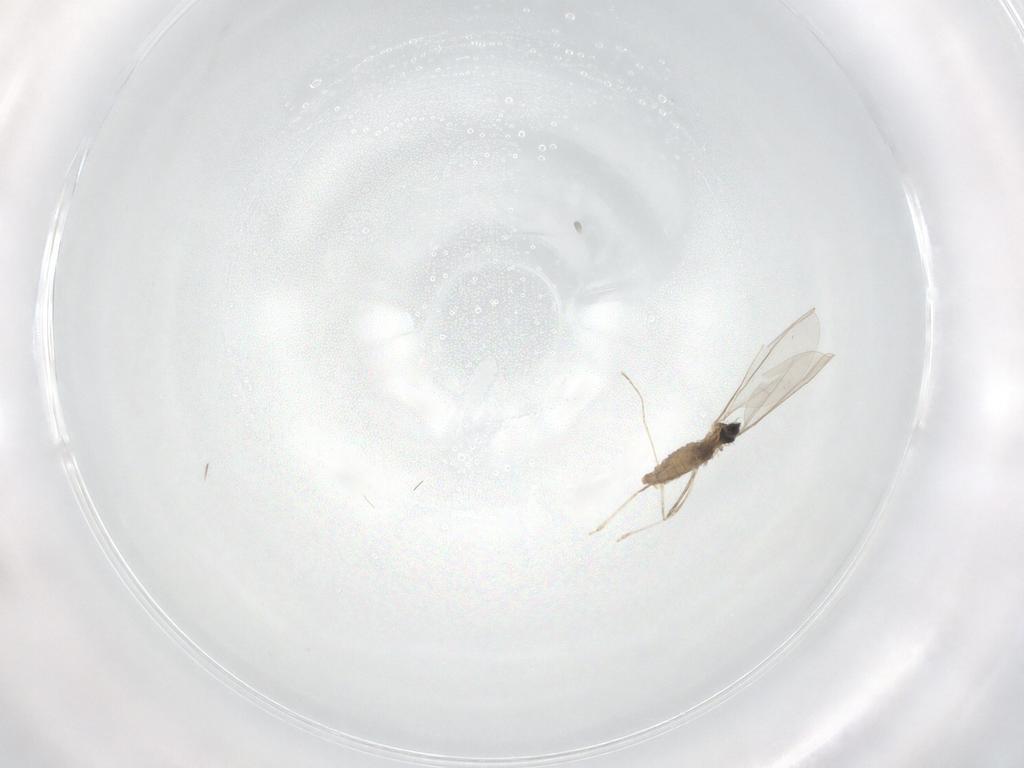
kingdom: Animalia
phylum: Arthropoda
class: Insecta
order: Diptera
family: Cecidomyiidae
